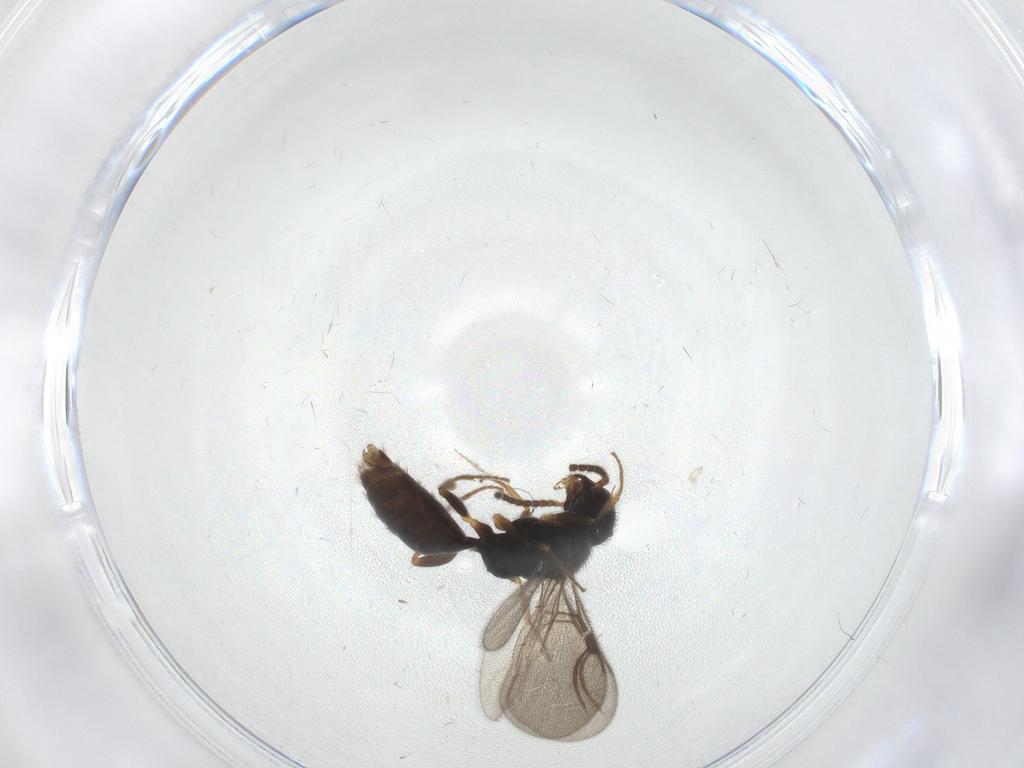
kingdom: Animalia
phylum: Arthropoda
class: Insecta
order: Hymenoptera
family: Bethylidae
